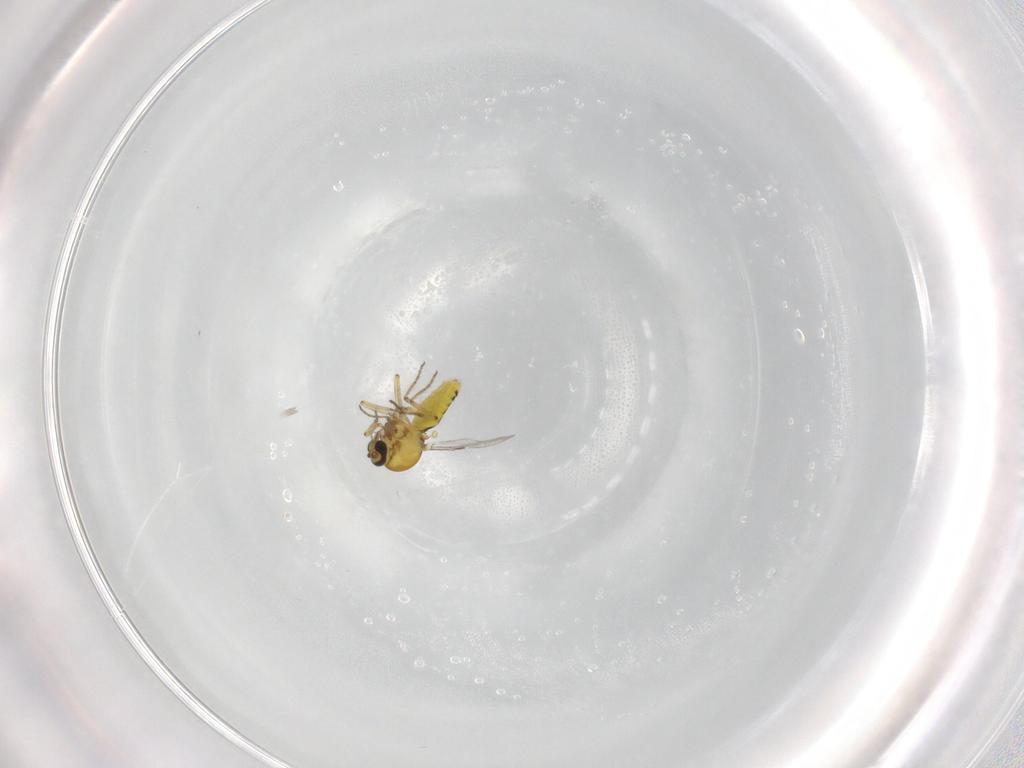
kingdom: Animalia
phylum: Arthropoda
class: Insecta
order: Diptera
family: Ceratopogonidae
